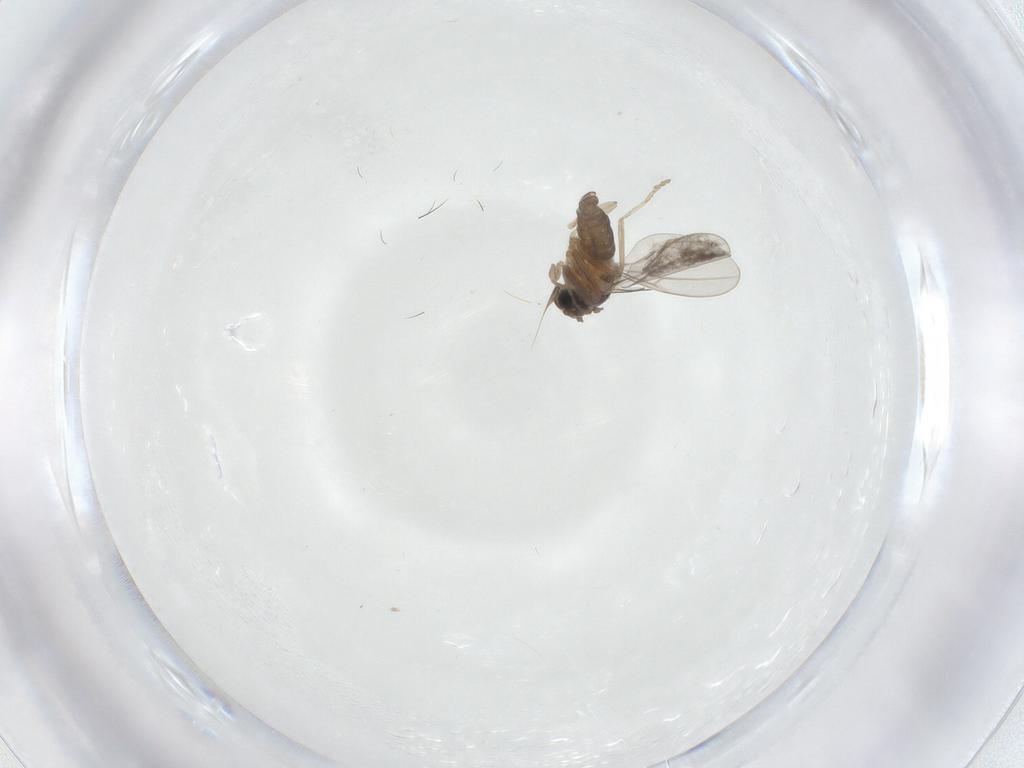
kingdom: Animalia
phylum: Arthropoda
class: Insecta
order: Diptera
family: Cecidomyiidae
